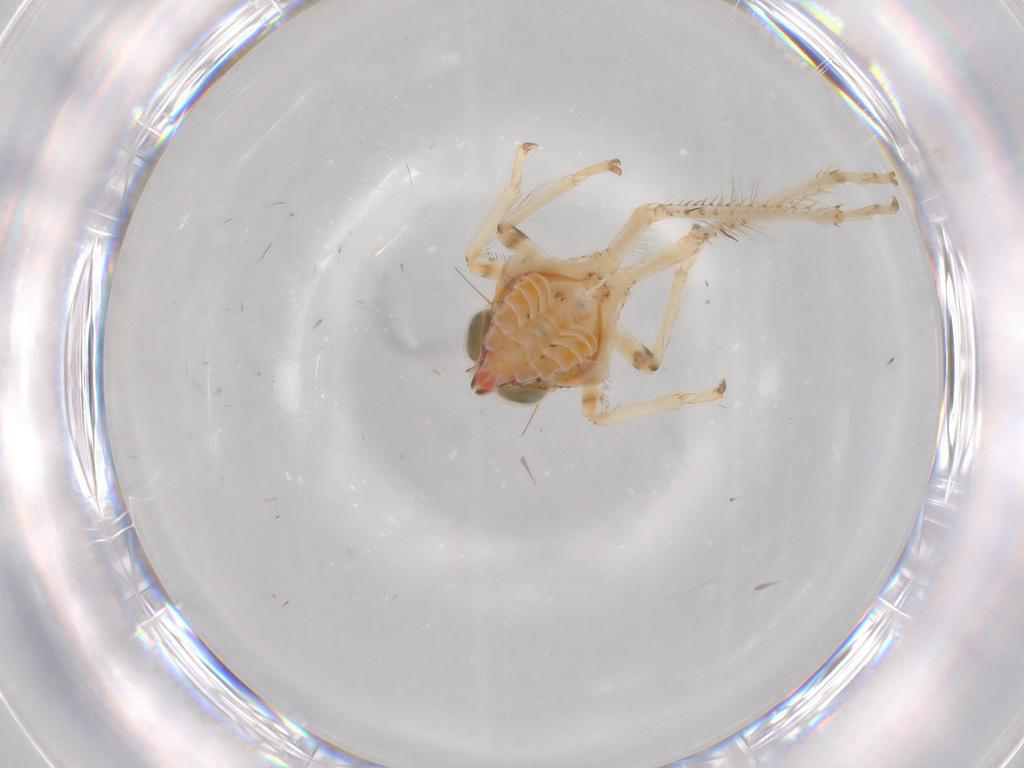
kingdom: Animalia
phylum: Arthropoda
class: Insecta
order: Hemiptera
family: Cicadellidae
